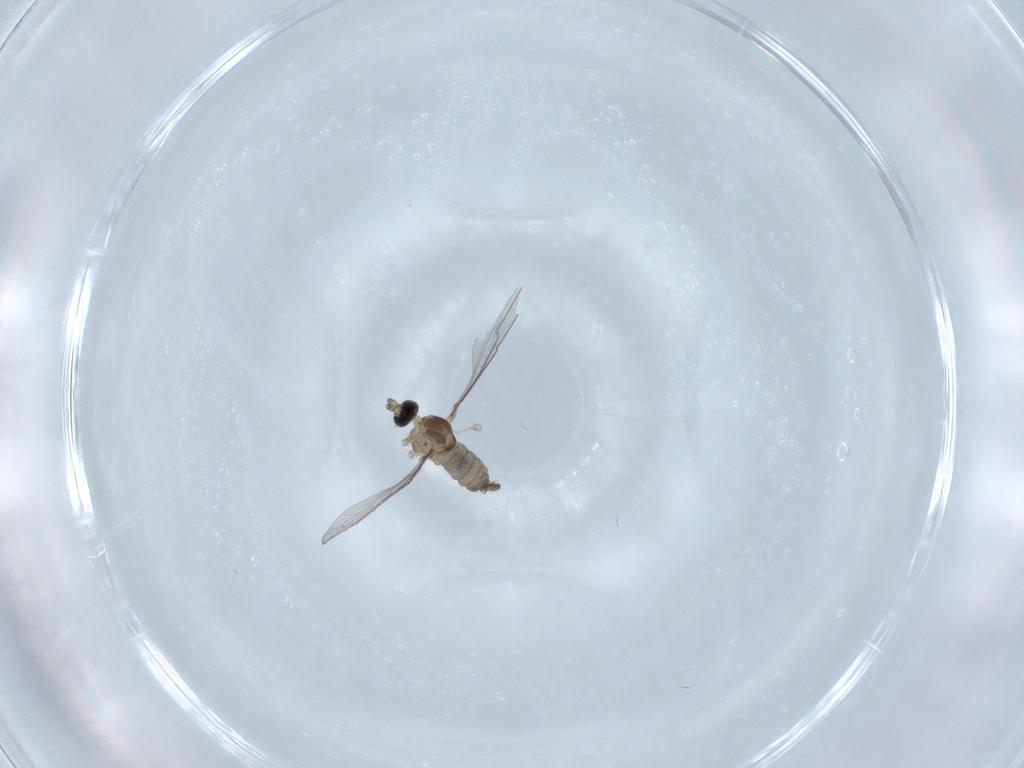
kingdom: Animalia
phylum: Arthropoda
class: Insecta
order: Diptera
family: Cecidomyiidae
